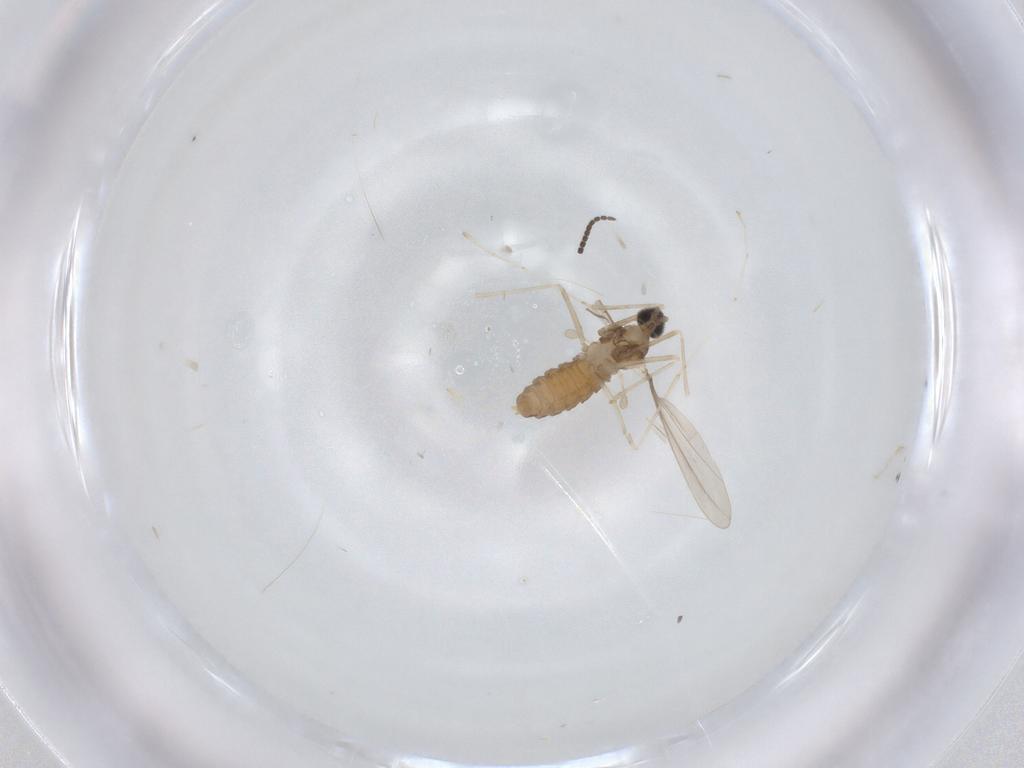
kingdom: Animalia
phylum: Arthropoda
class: Insecta
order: Diptera
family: Cecidomyiidae
